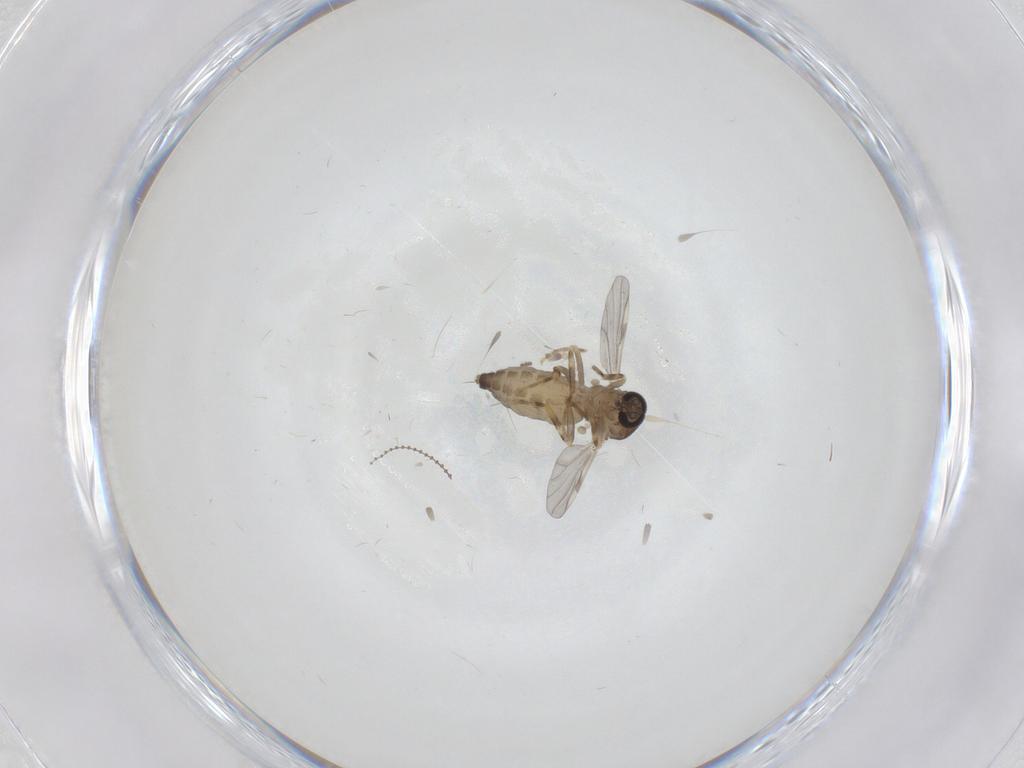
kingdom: Animalia
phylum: Arthropoda
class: Insecta
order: Diptera
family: Ceratopogonidae
